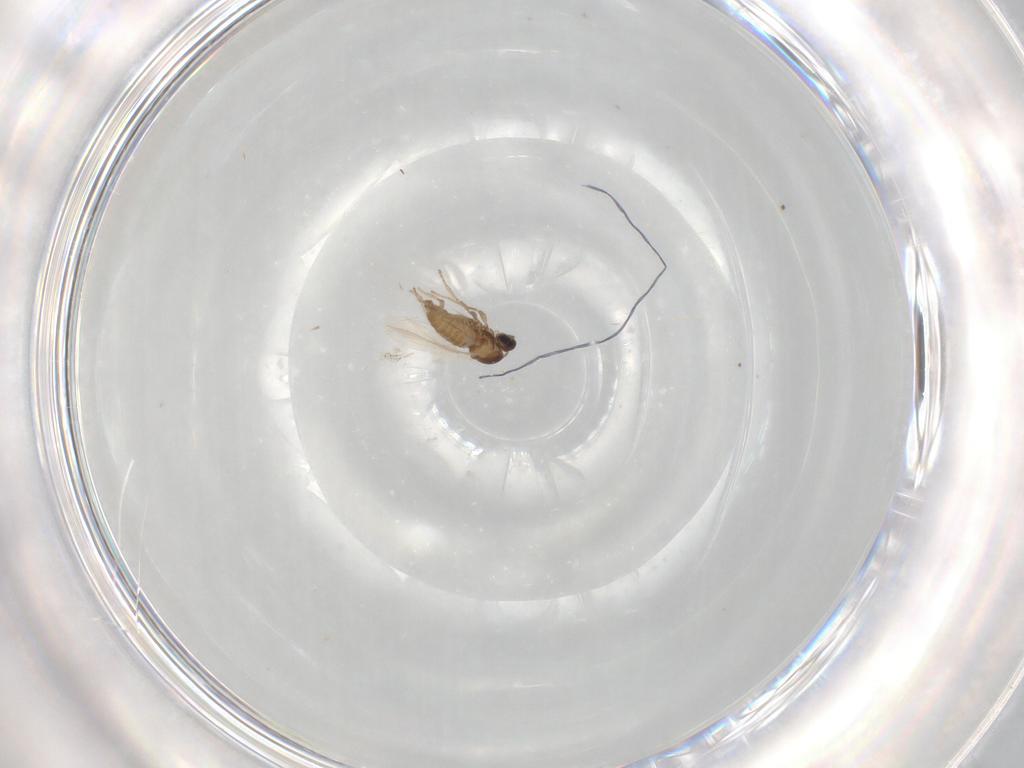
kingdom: Animalia
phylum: Arthropoda
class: Insecta
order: Diptera
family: Cecidomyiidae
